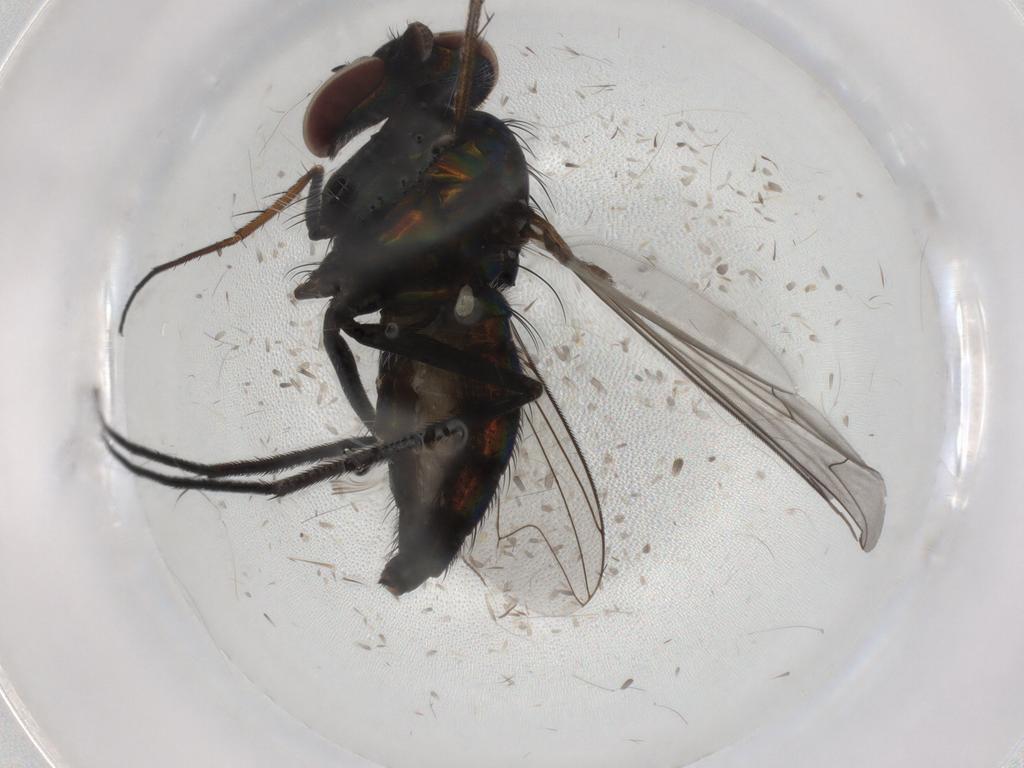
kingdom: Animalia
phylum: Arthropoda
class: Insecta
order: Diptera
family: Dolichopodidae
